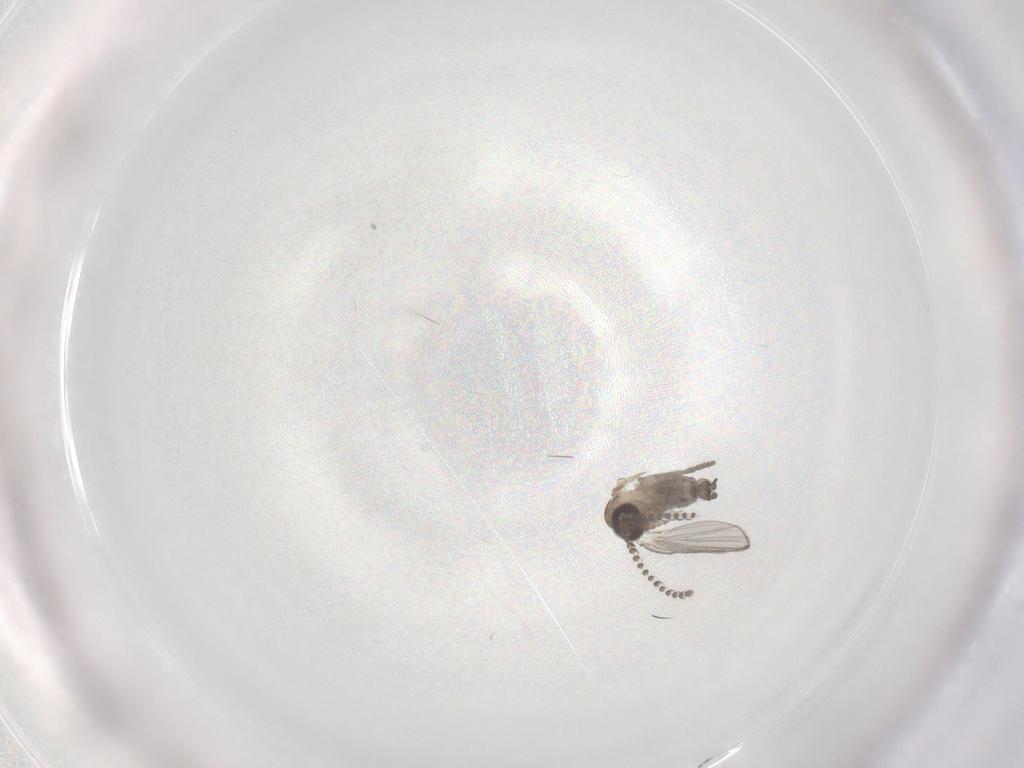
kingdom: Animalia
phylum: Arthropoda
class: Insecta
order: Diptera
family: Psychodidae
